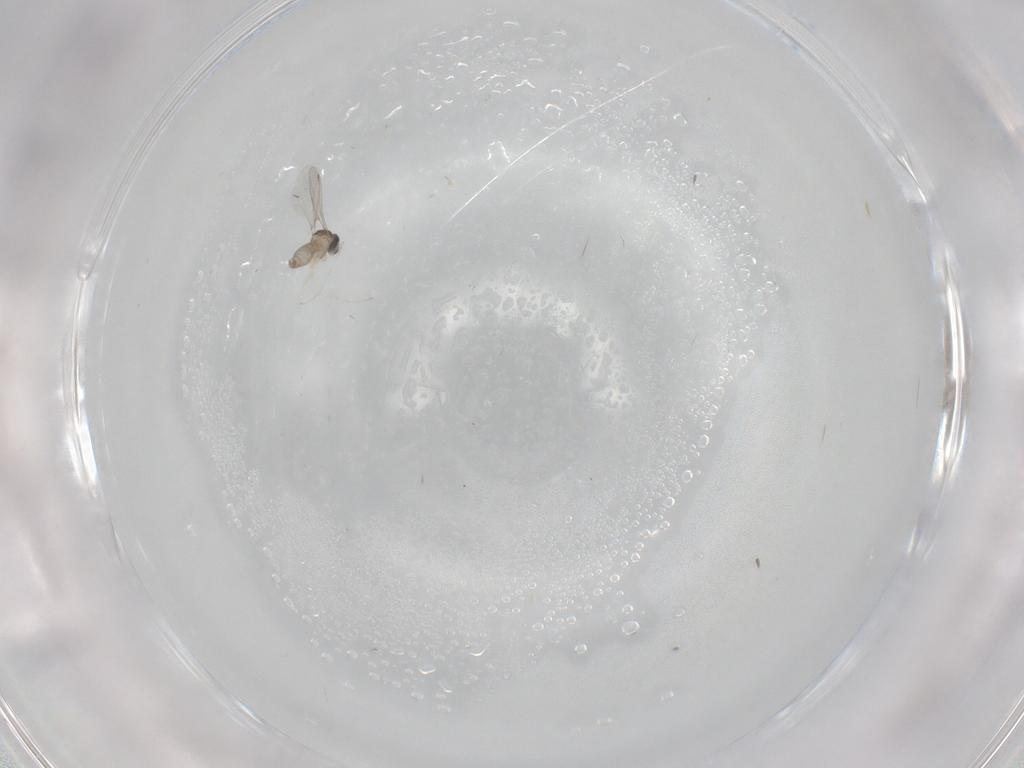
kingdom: Animalia
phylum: Arthropoda
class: Insecta
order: Diptera
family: Cecidomyiidae
